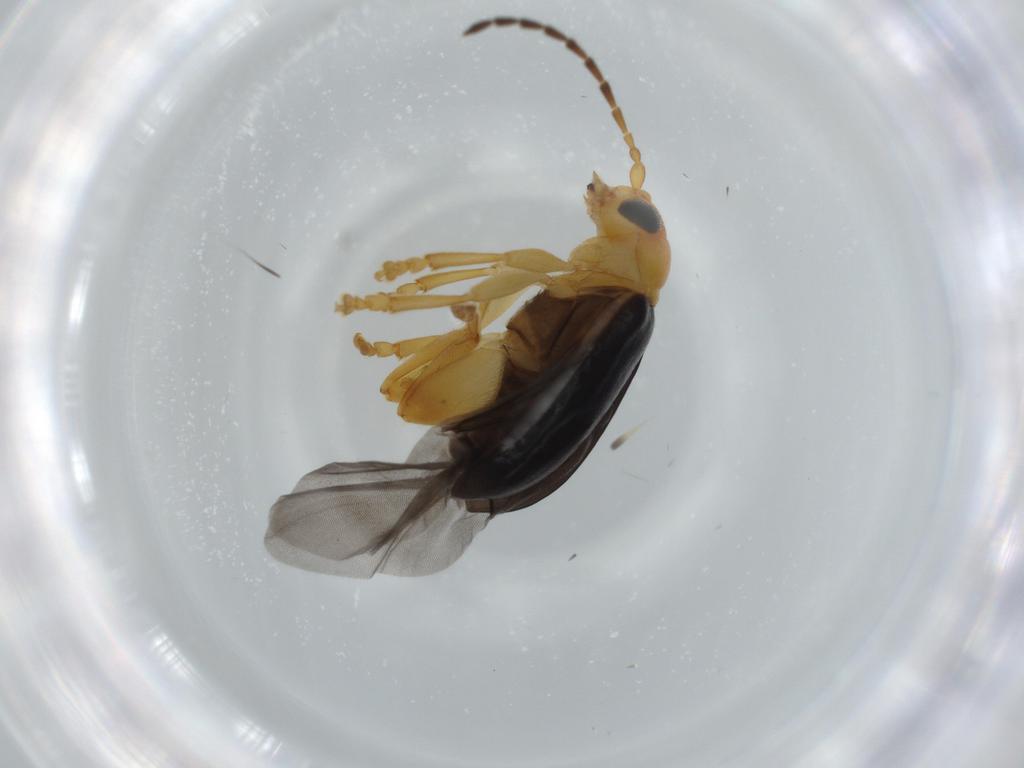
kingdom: Animalia
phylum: Arthropoda
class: Insecta
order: Coleoptera
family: Chrysomelidae
